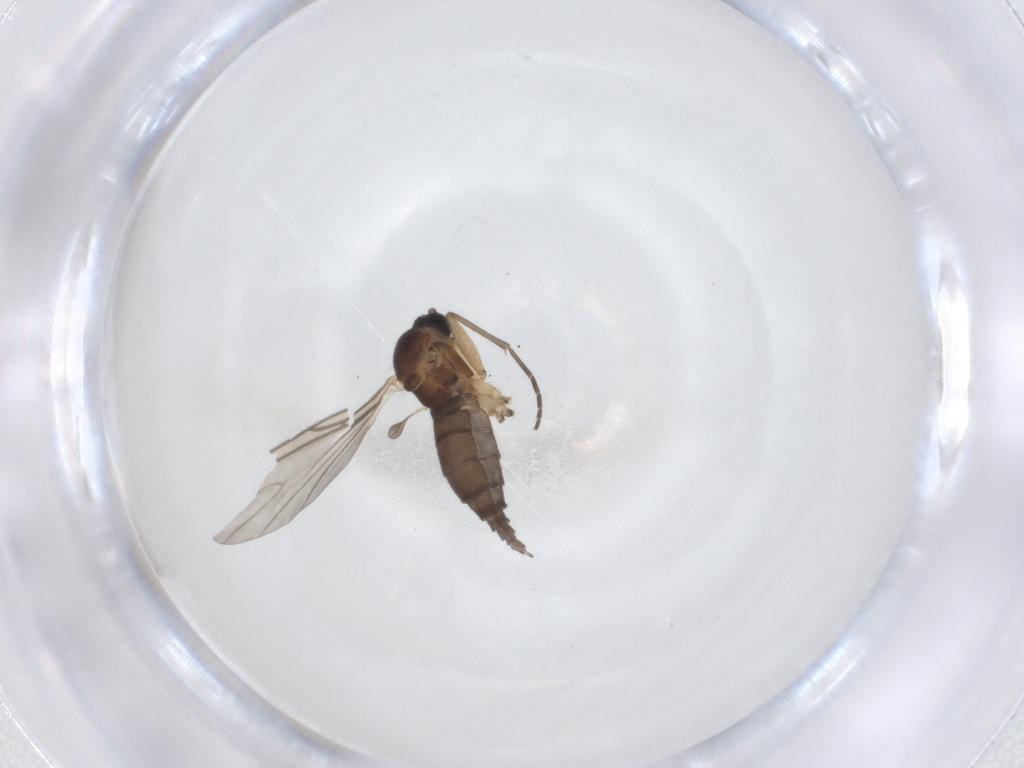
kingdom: Animalia
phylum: Arthropoda
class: Insecta
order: Diptera
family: Sciaridae
